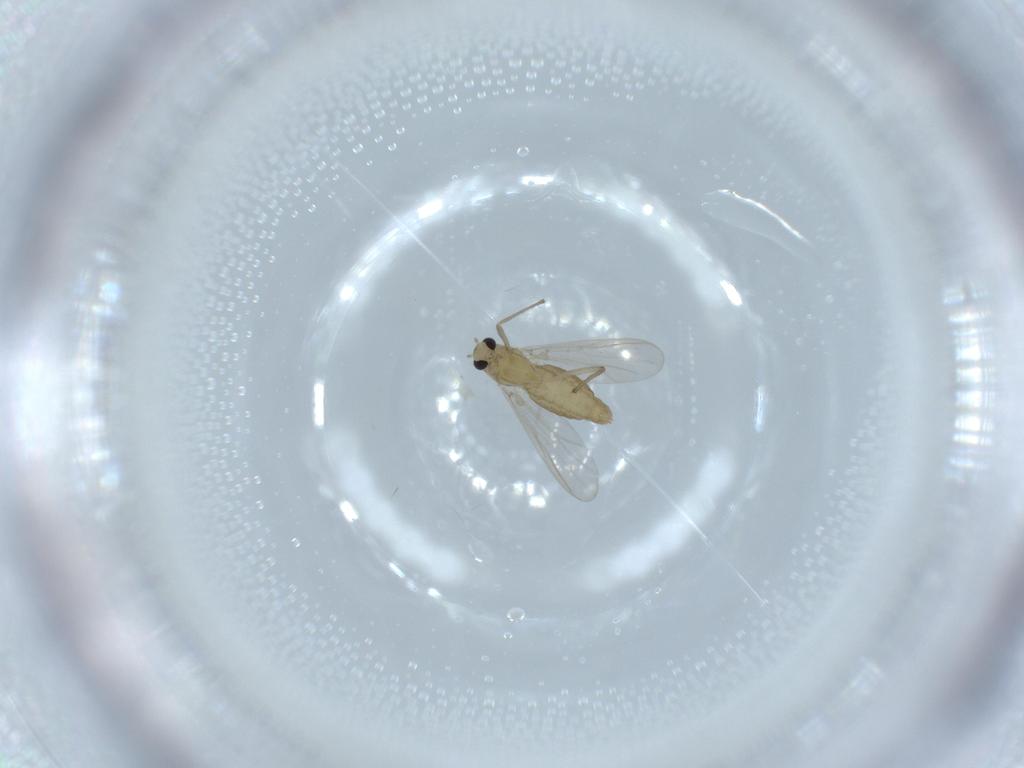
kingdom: Animalia
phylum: Arthropoda
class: Insecta
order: Diptera
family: Chironomidae
